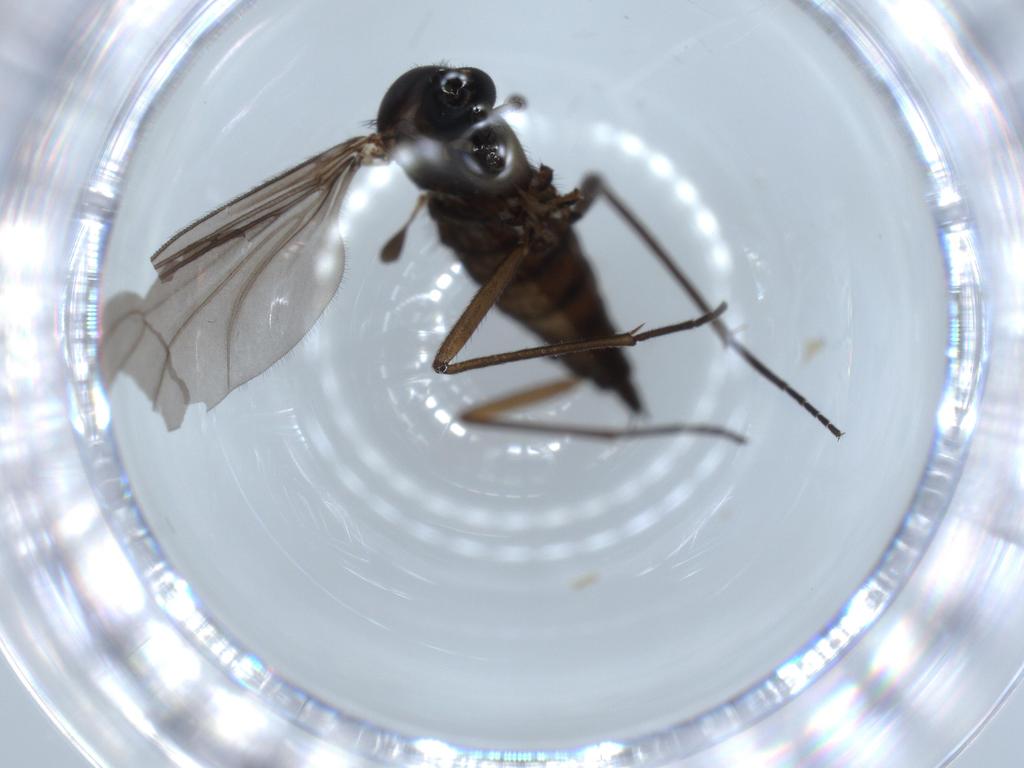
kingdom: Animalia
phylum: Arthropoda
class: Insecta
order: Diptera
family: Sciaridae
